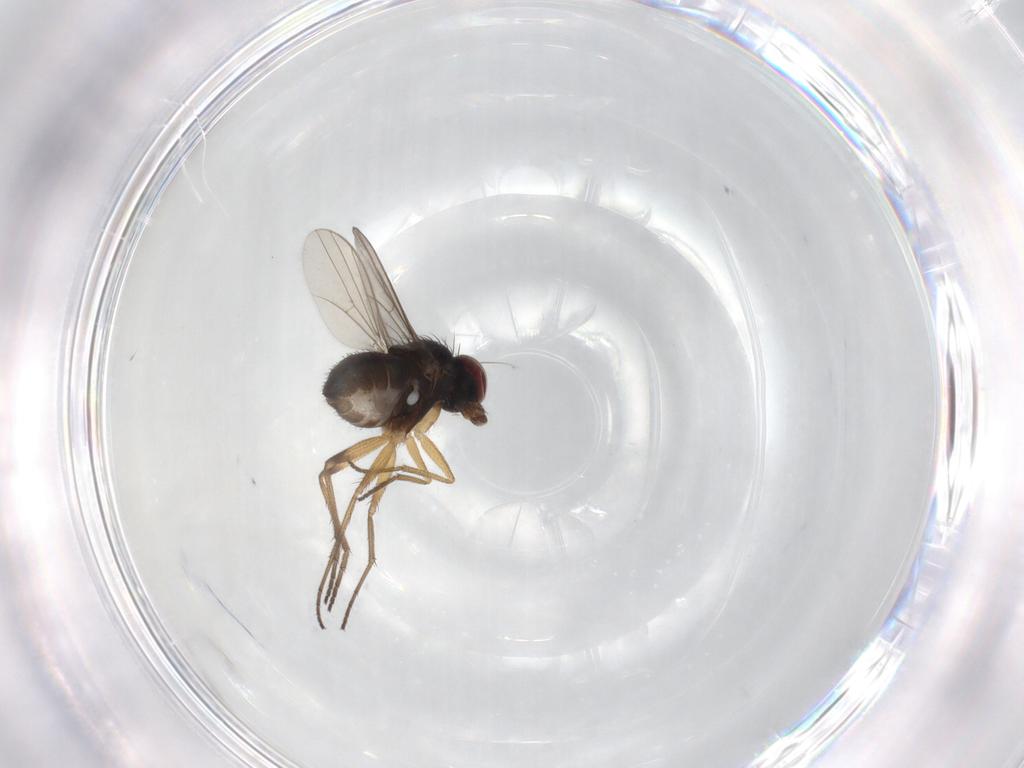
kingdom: Animalia
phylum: Arthropoda
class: Insecta
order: Diptera
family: Dolichopodidae
